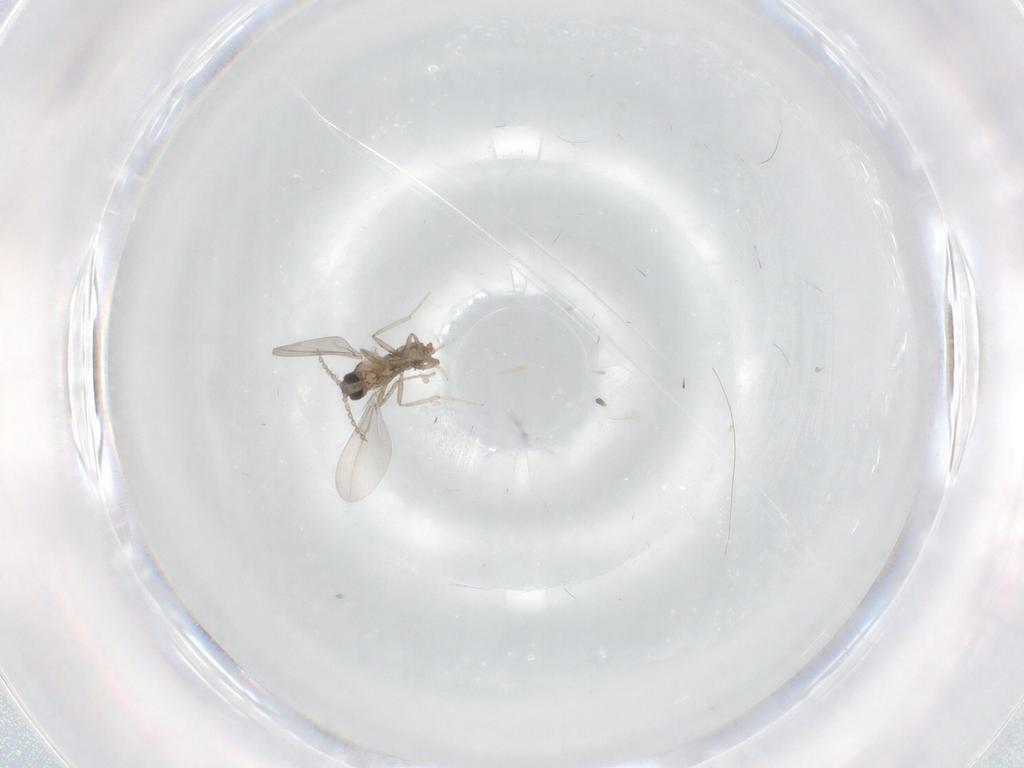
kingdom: Animalia
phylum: Arthropoda
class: Insecta
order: Diptera
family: Cecidomyiidae
